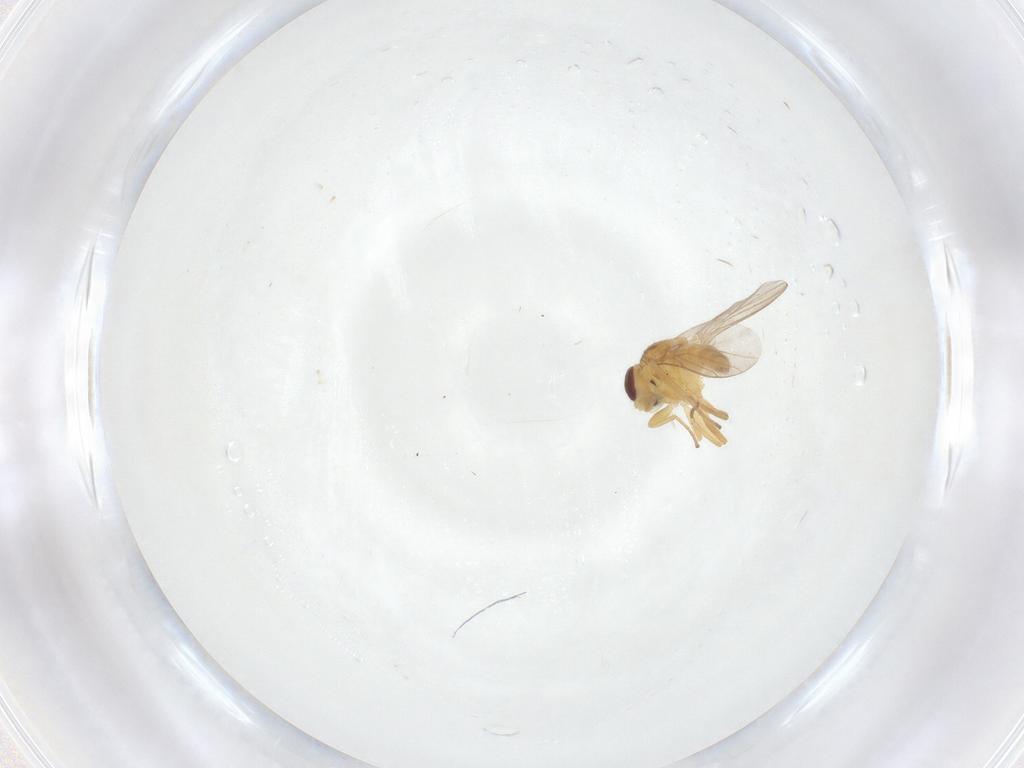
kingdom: Animalia
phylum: Arthropoda
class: Insecta
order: Diptera
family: Chloropidae
